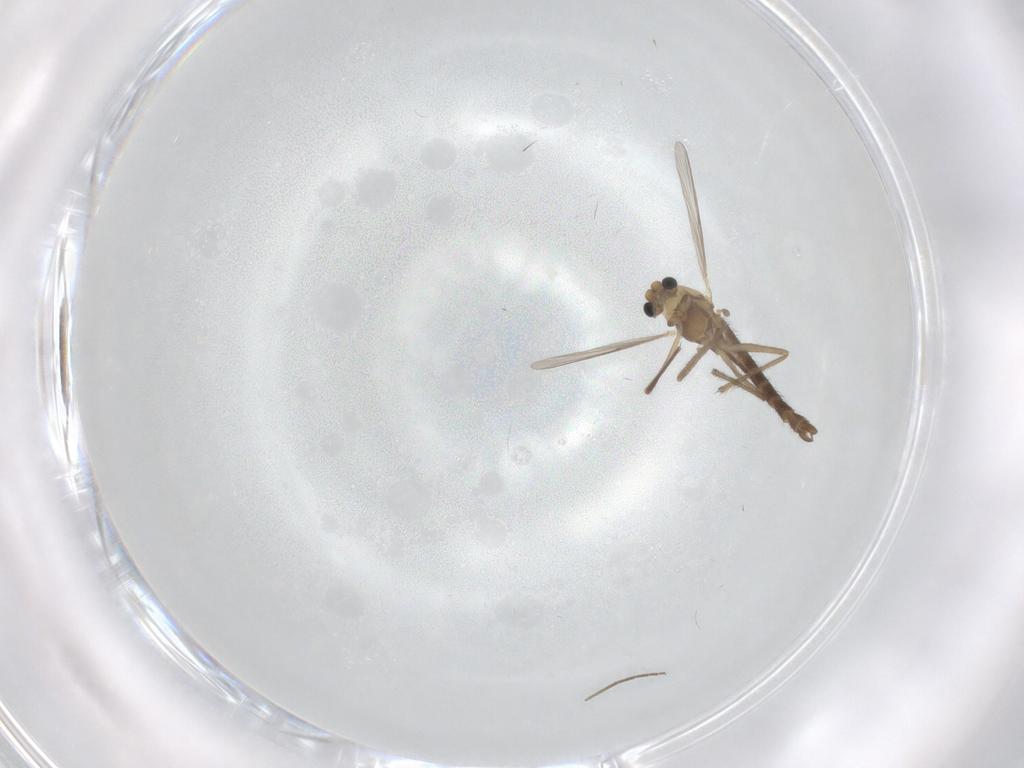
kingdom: Animalia
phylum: Arthropoda
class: Insecta
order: Diptera
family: Chironomidae
